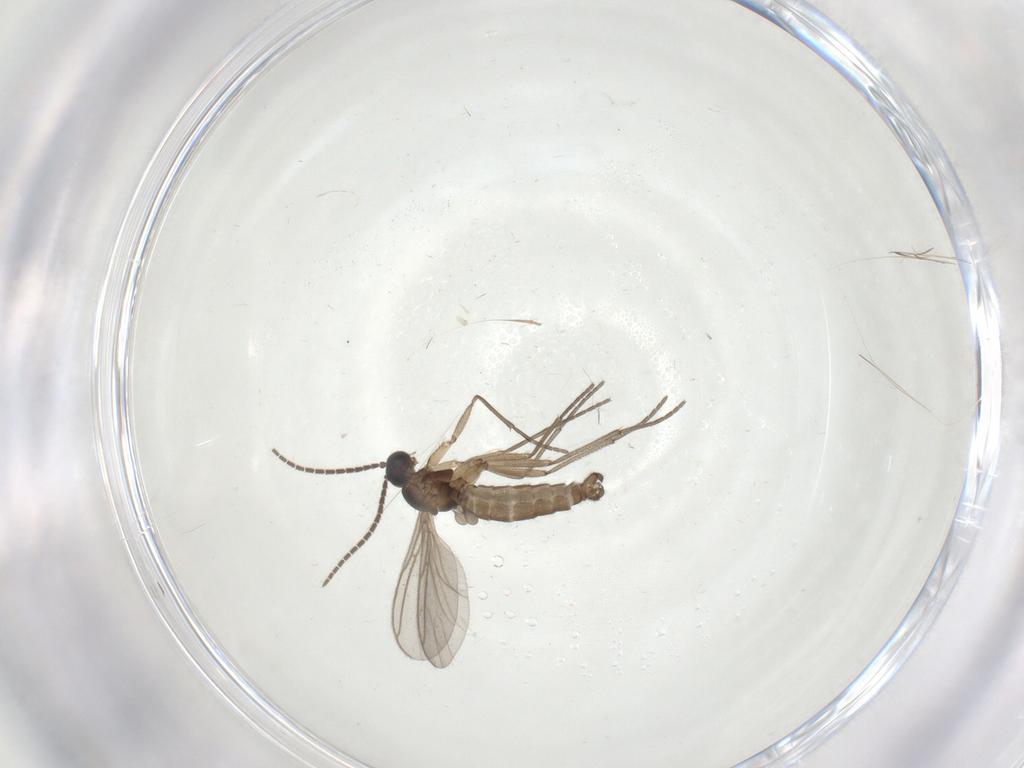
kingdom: Animalia
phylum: Arthropoda
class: Insecta
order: Diptera
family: Sciaridae
